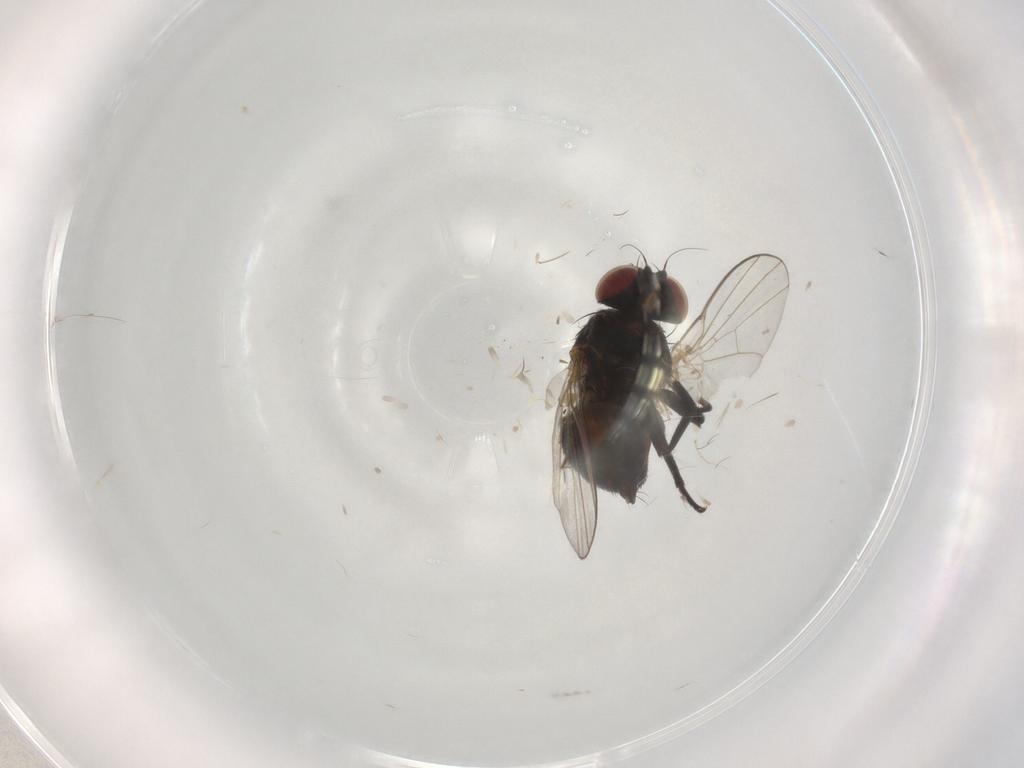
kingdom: Animalia
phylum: Arthropoda
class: Insecta
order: Diptera
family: Agromyzidae
